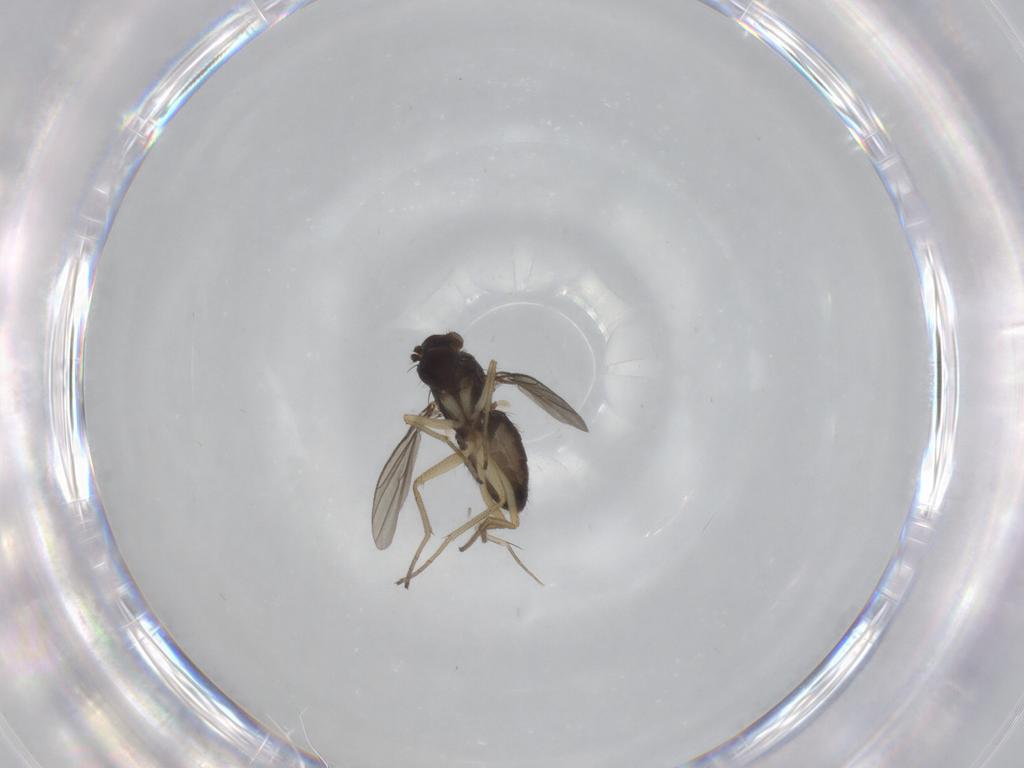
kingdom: Animalia
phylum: Arthropoda
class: Insecta
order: Diptera
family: Dolichopodidae
